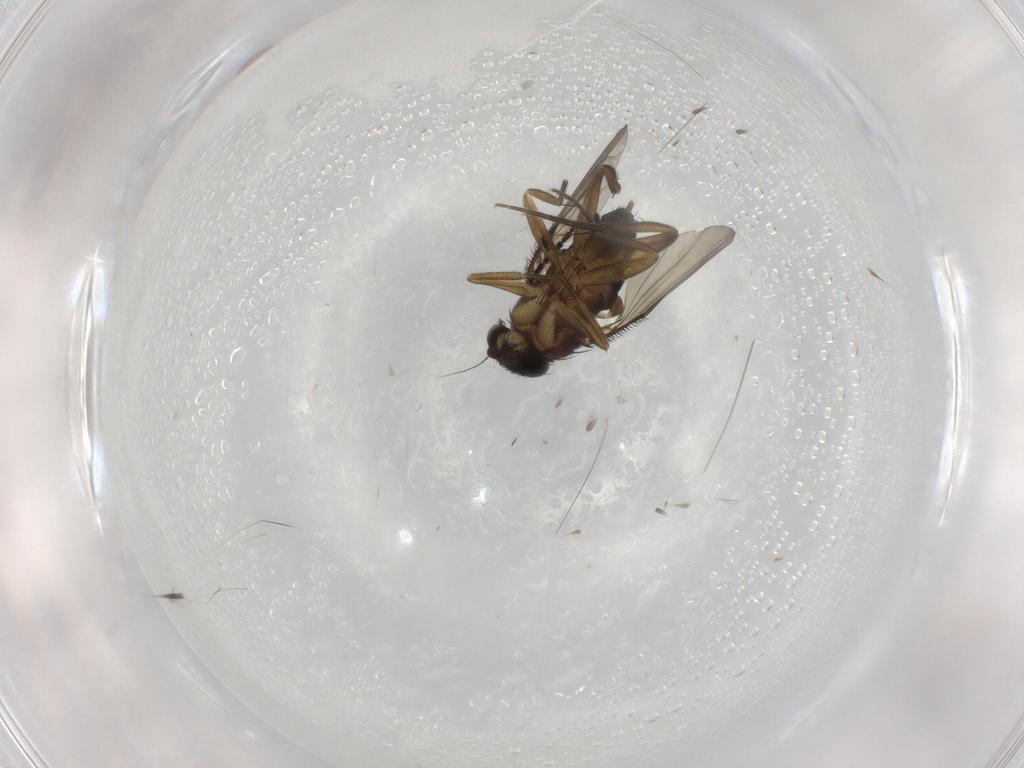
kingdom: Animalia
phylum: Arthropoda
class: Insecta
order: Diptera
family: Phoridae
